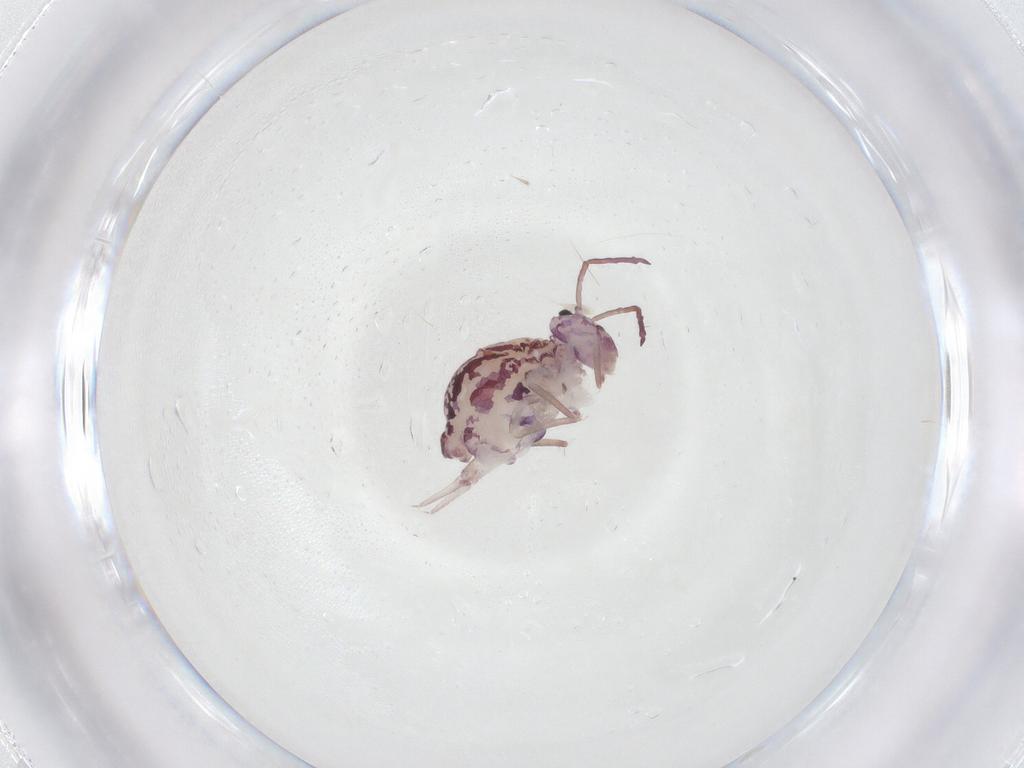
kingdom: Animalia
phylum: Arthropoda
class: Collembola
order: Symphypleona
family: Dicyrtomidae
